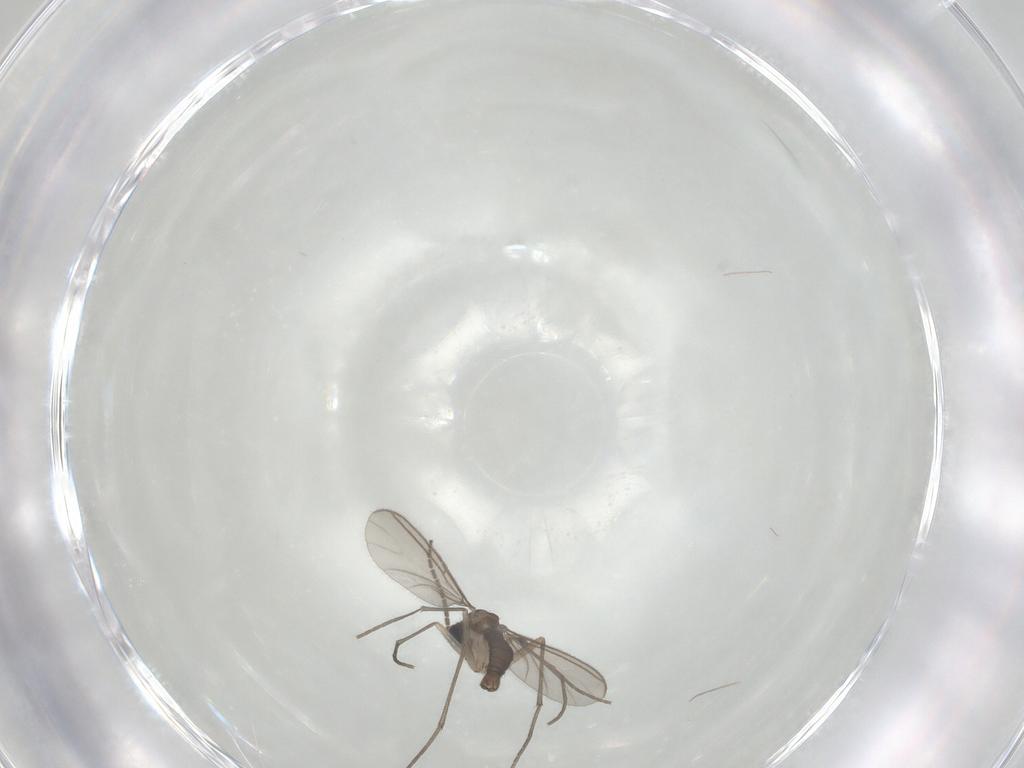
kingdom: Animalia
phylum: Arthropoda
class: Insecta
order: Diptera
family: Sciaridae
